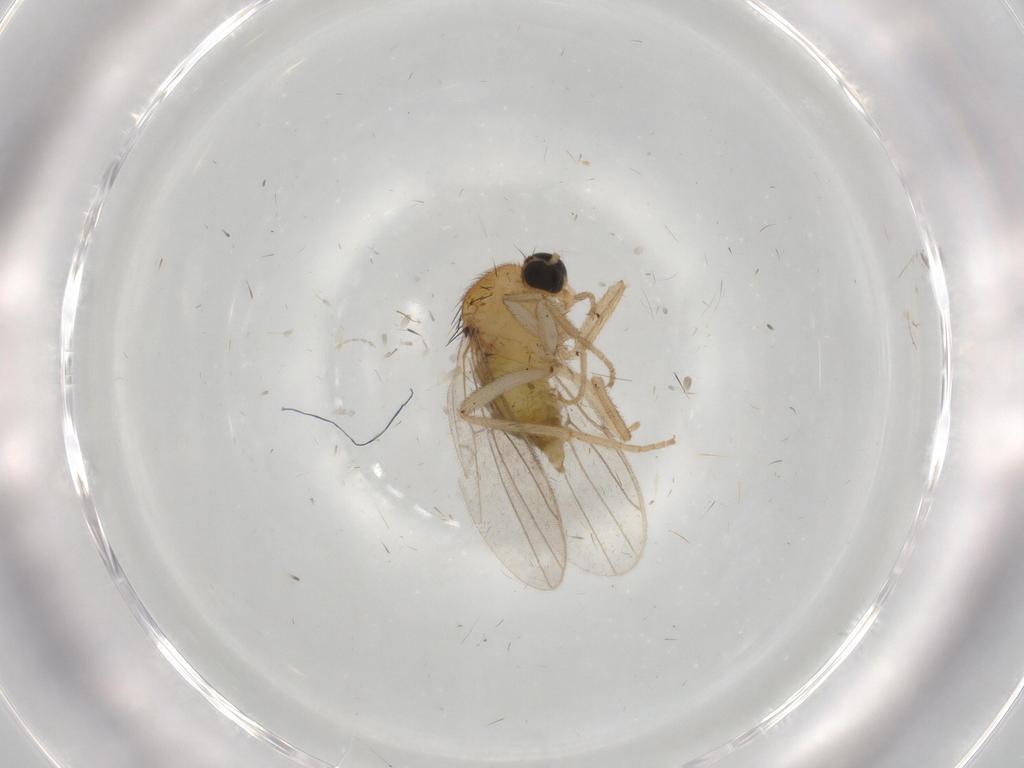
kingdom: Animalia
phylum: Arthropoda
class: Insecta
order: Diptera
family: Hybotidae
